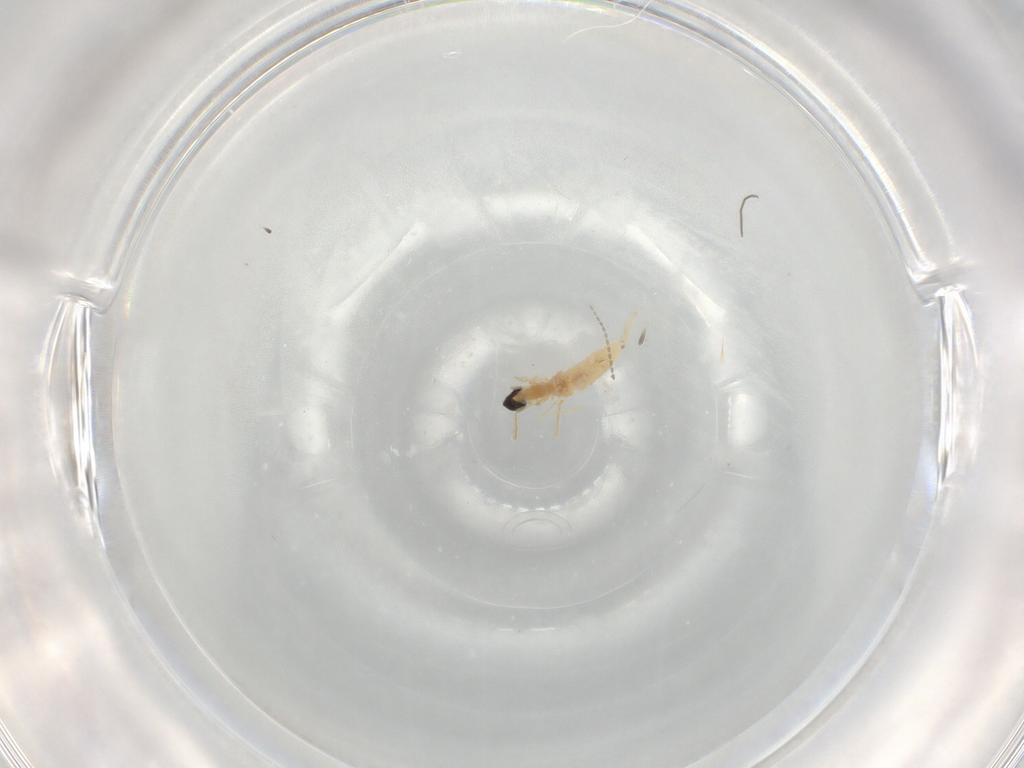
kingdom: Animalia
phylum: Arthropoda
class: Insecta
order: Diptera
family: Cecidomyiidae
